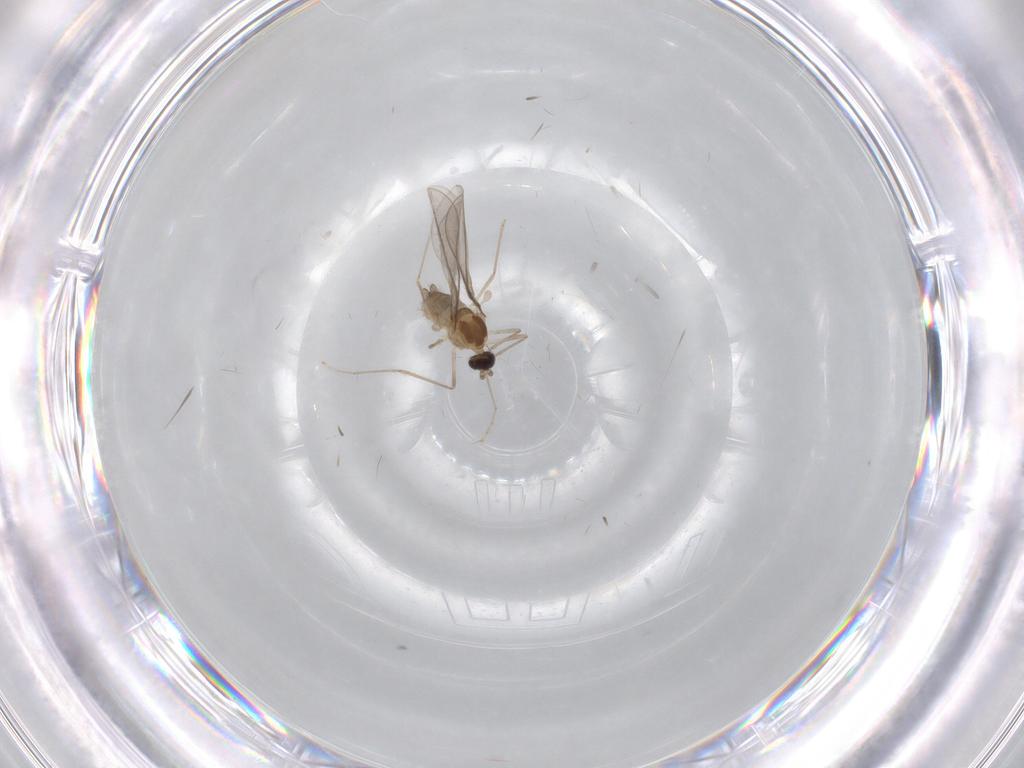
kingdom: Animalia
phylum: Arthropoda
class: Insecta
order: Diptera
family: Cecidomyiidae
